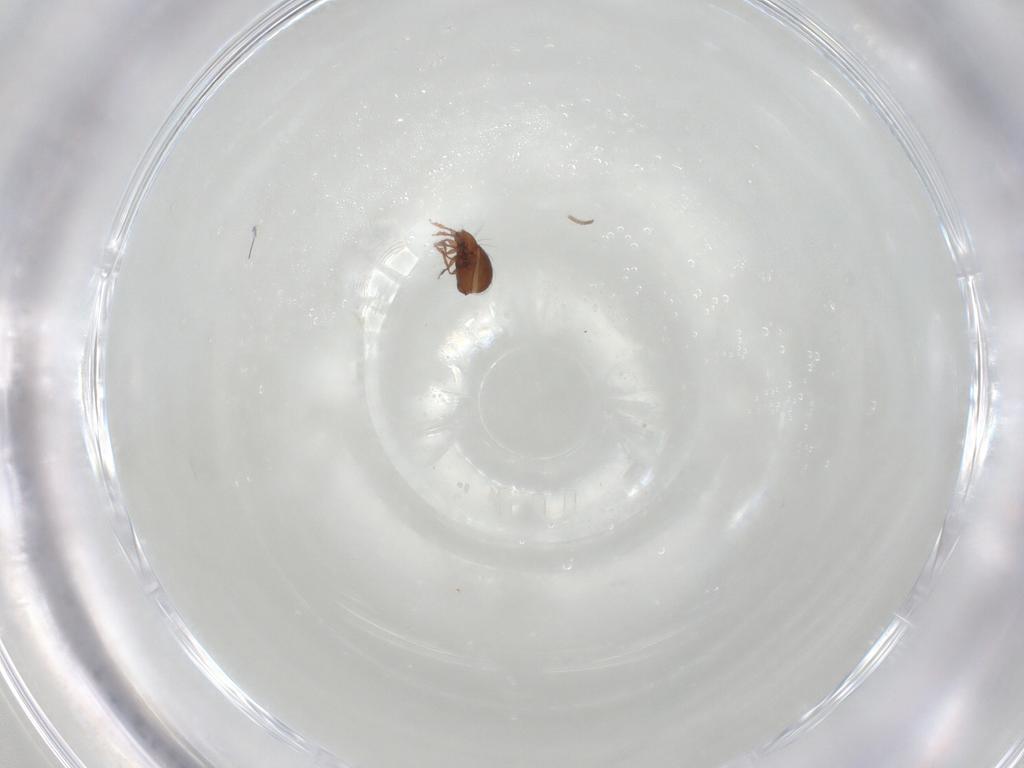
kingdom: Animalia
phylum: Arthropoda
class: Arachnida
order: Sarcoptiformes
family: Oribatulidae
